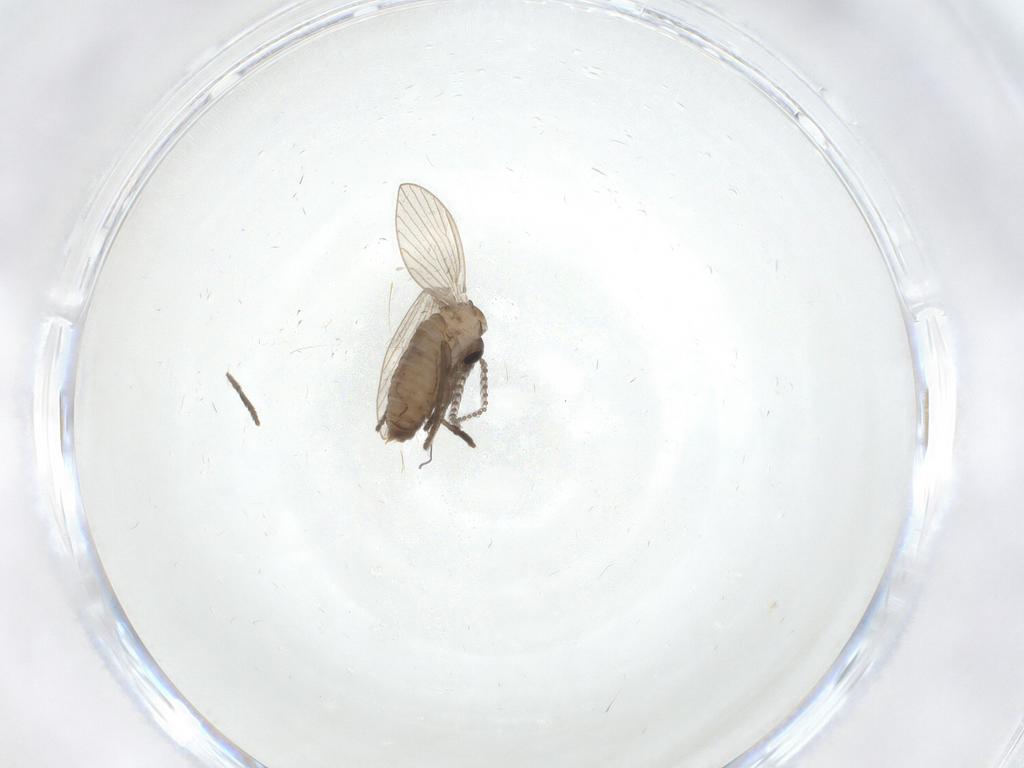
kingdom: Animalia
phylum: Arthropoda
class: Insecta
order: Diptera
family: Psychodidae
